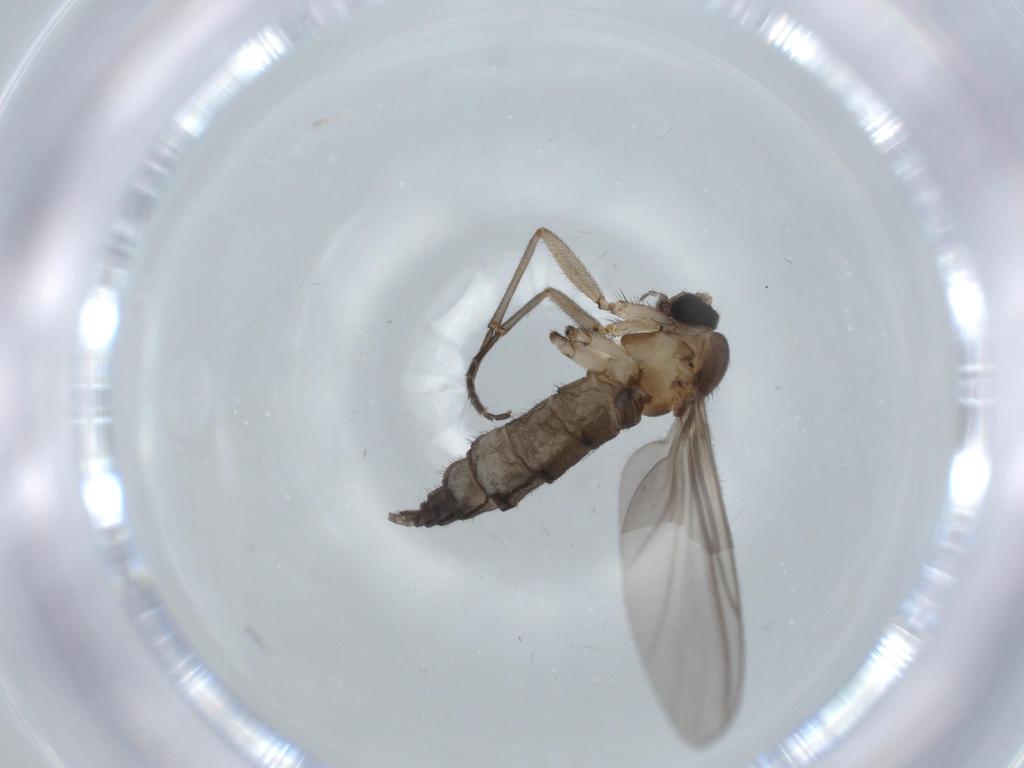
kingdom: Animalia
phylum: Arthropoda
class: Insecta
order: Diptera
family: Sciaridae
